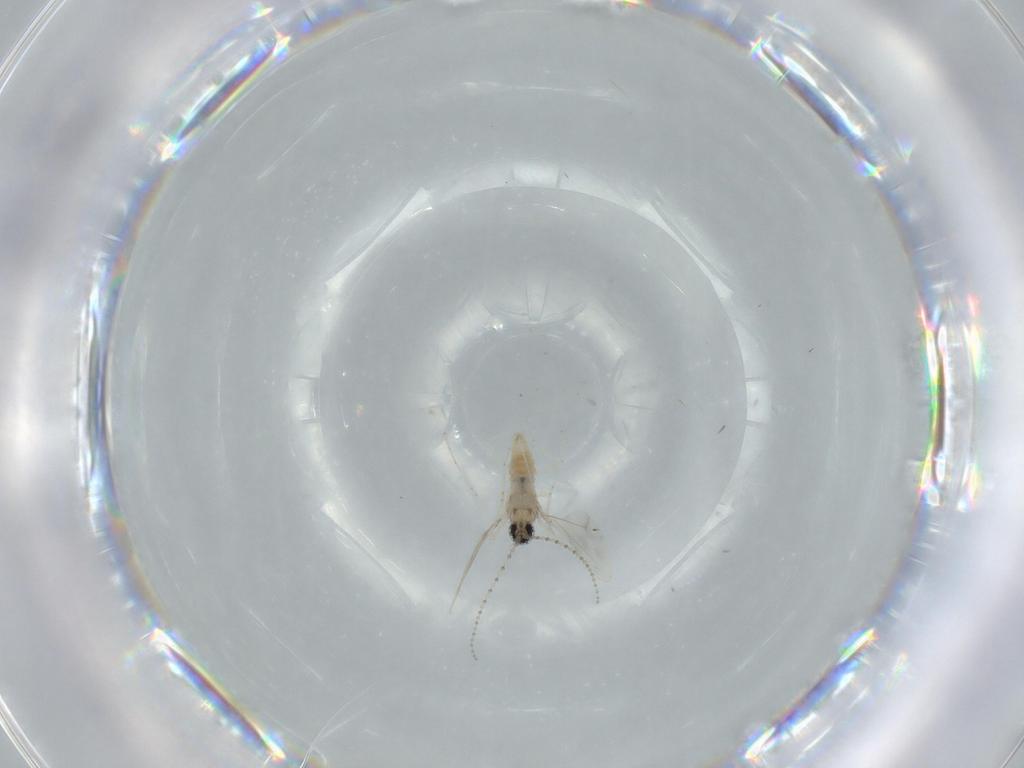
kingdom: Animalia
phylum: Arthropoda
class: Insecta
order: Diptera
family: Cecidomyiidae
